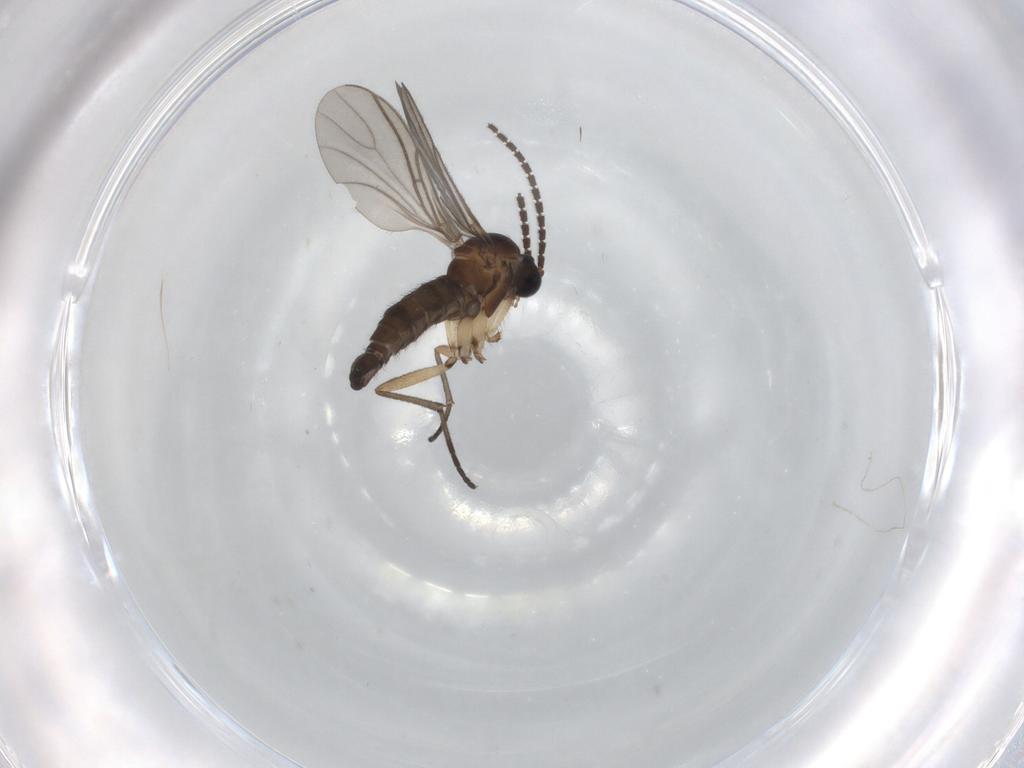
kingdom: Animalia
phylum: Arthropoda
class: Insecta
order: Diptera
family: Sciaridae
